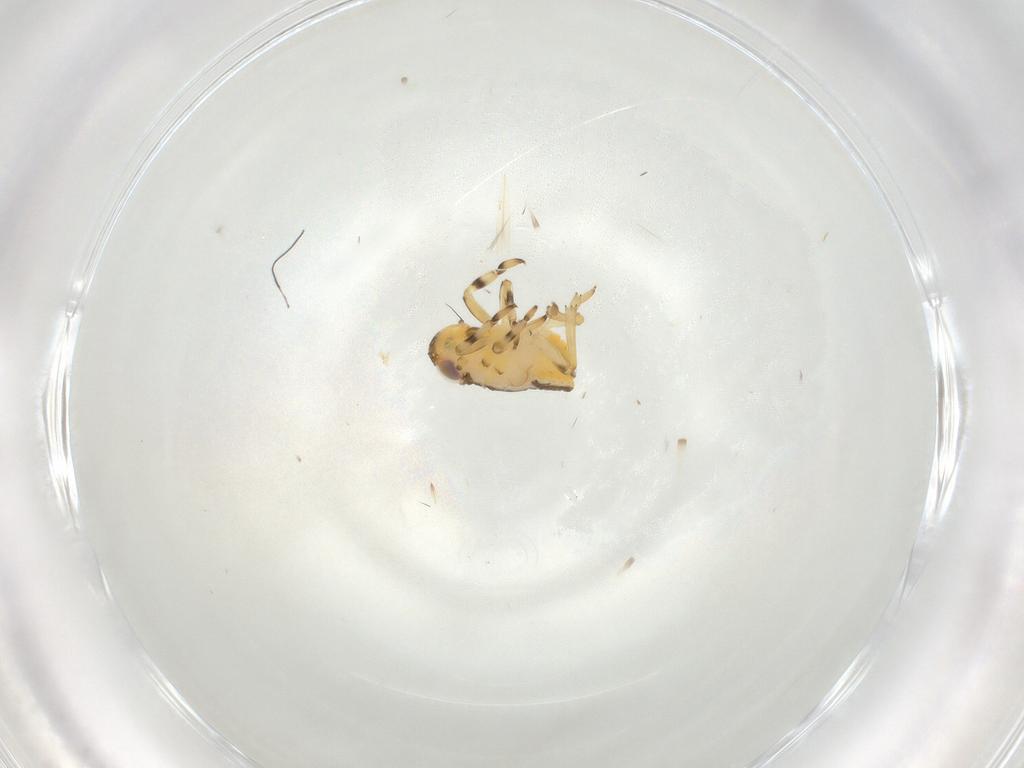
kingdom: Animalia
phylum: Arthropoda
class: Insecta
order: Hemiptera
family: Issidae
